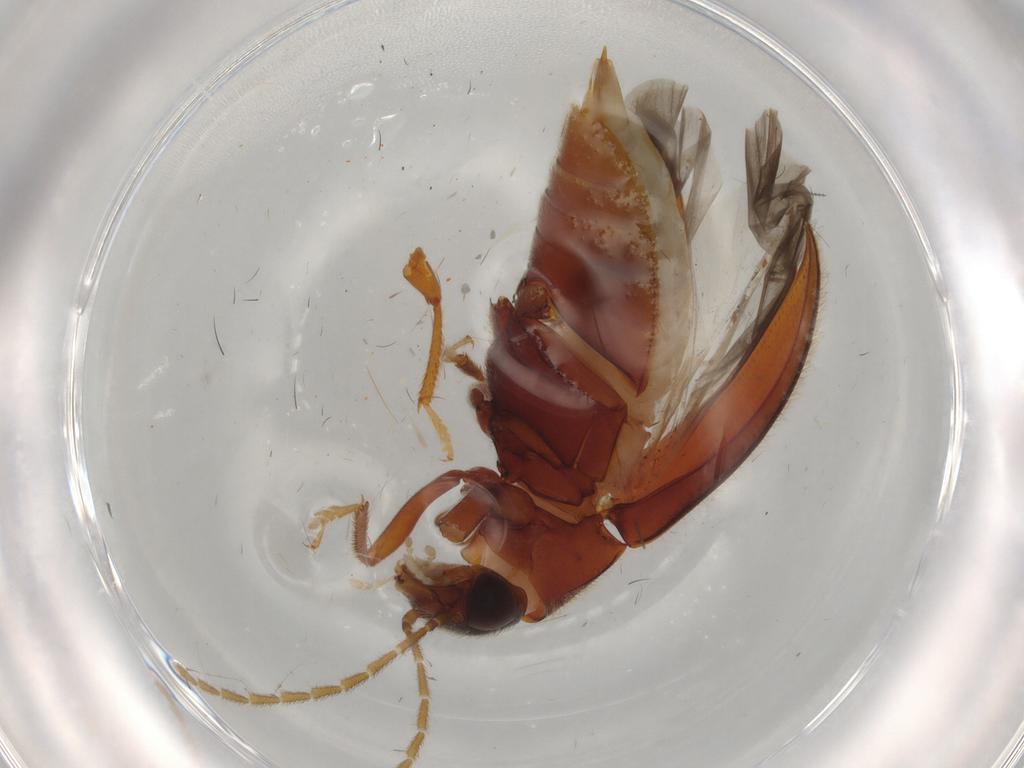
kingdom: Animalia
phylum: Arthropoda
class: Insecta
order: Coleoptera
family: Ptilodactylidae
